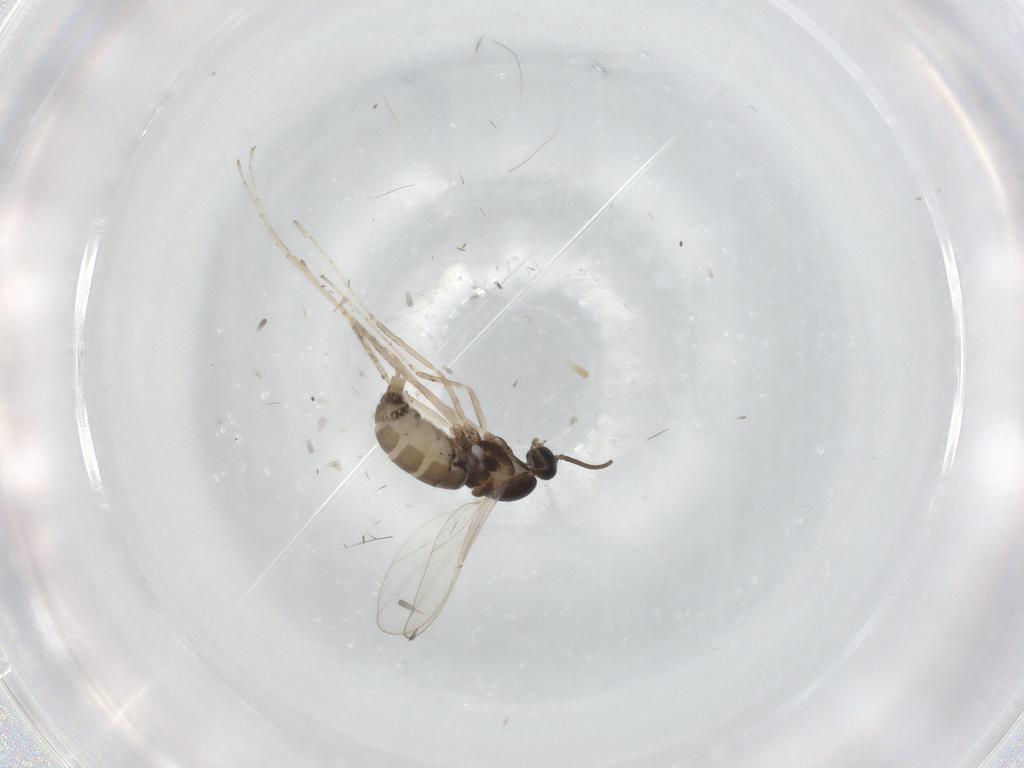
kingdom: Animalia
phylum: Arthropoda
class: Insecta
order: Diptera
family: Cecidomyiidae
